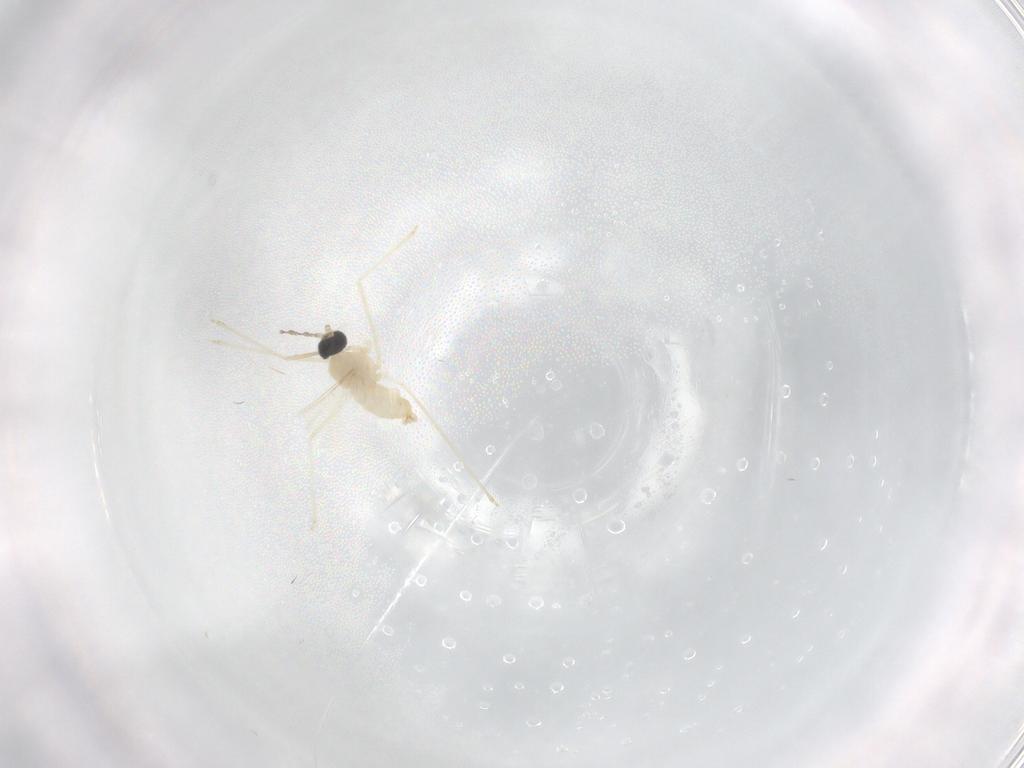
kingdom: Animalia
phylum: Arthropoda
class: Insecta
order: Diptera
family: Cecidomyiidae
